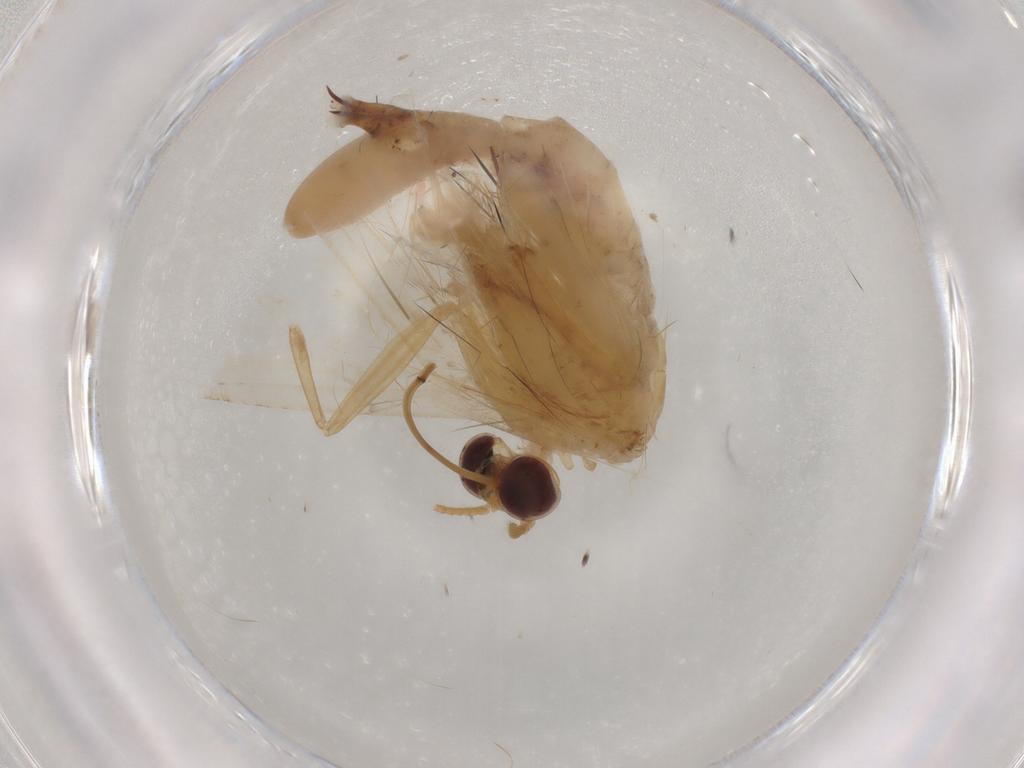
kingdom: Animalia
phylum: Arthropoda
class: Insecta
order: Lepidoptera
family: Geometridae
